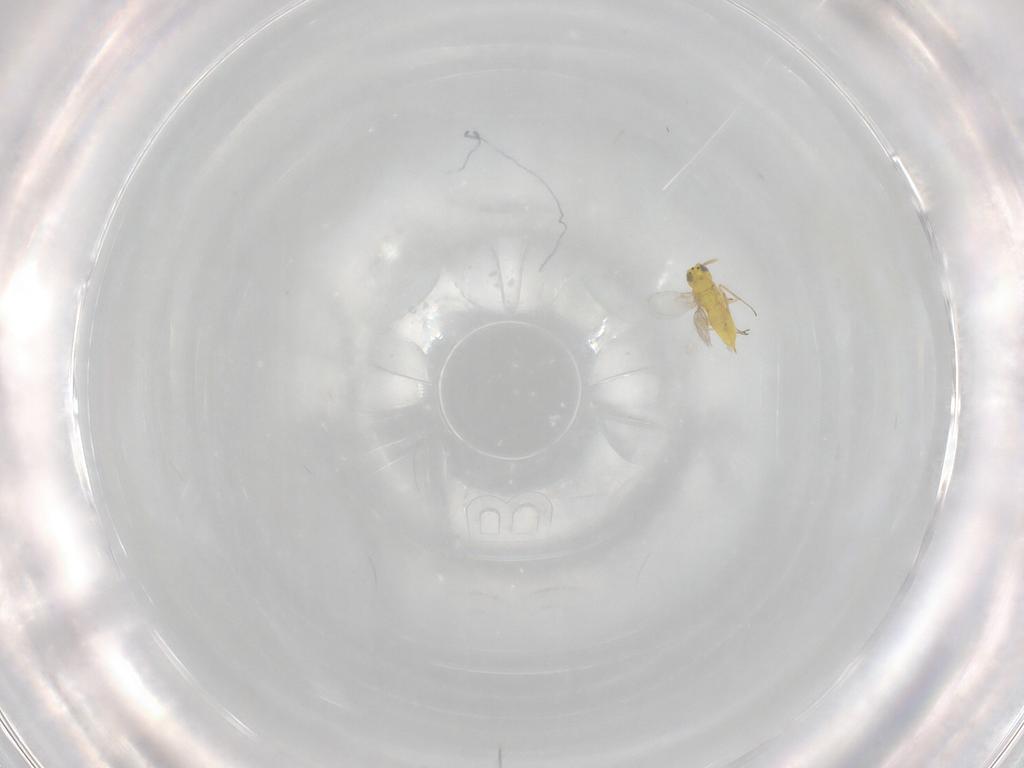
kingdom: Animalia
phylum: Arthropoda
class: Insecta
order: Hymenoptera
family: Aphelinidae
